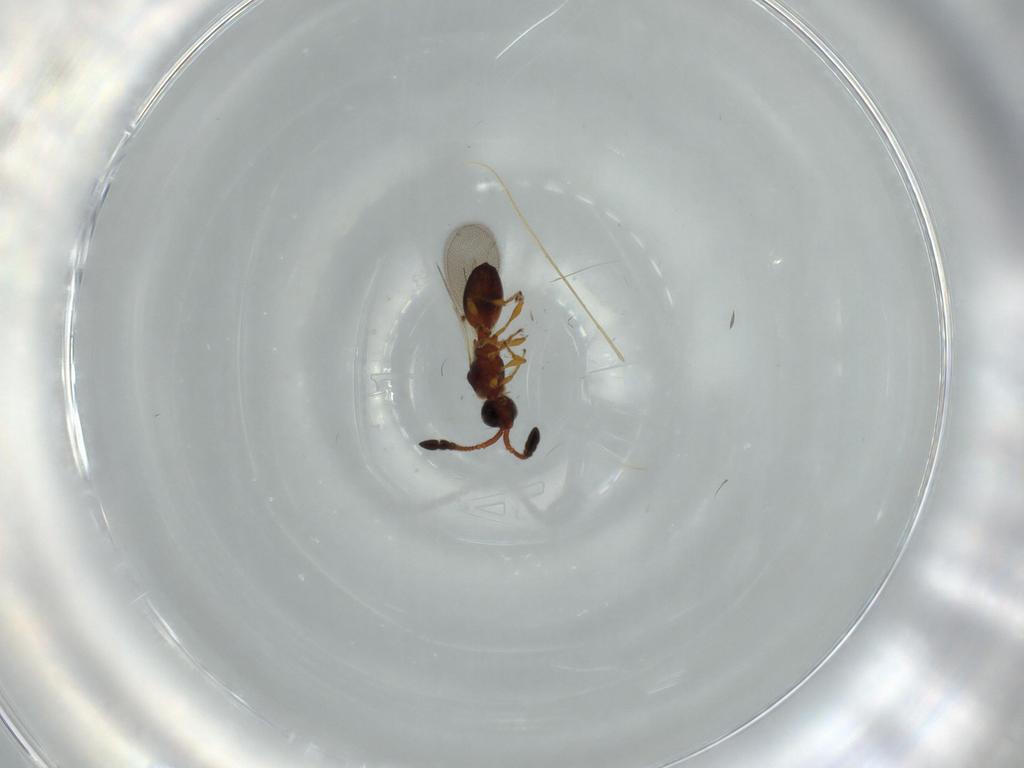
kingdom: Animalia
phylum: Arthropoda
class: Insecta
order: Hymenoptera
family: Diapriidae
